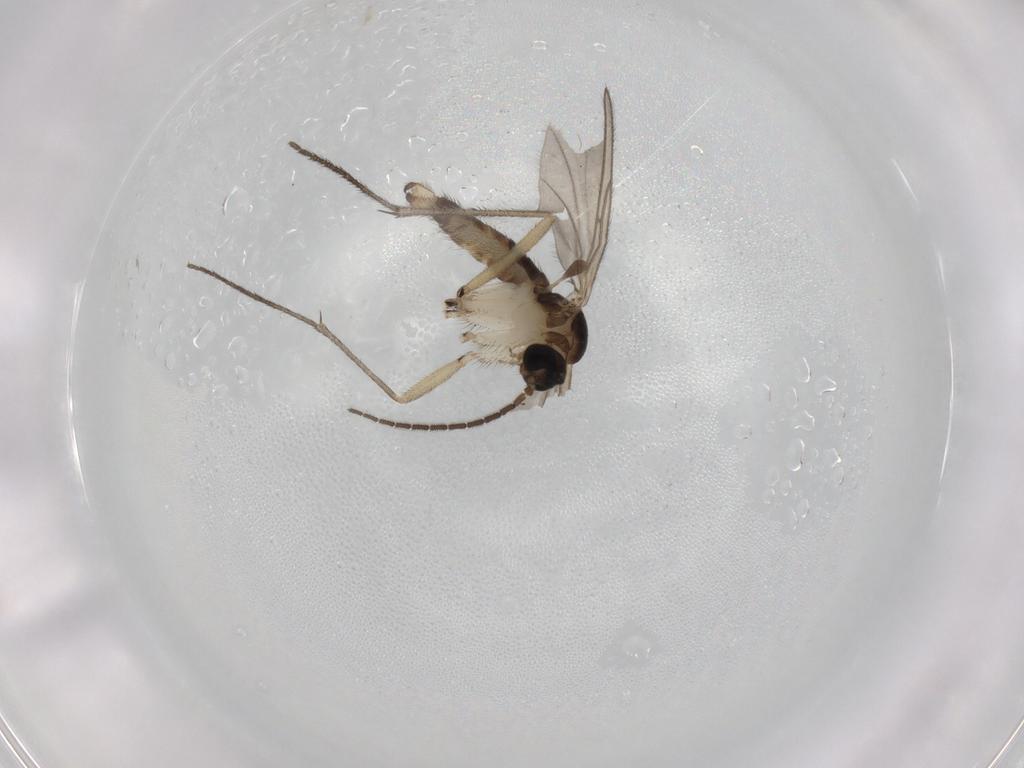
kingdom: Animalia
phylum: Arthropoda
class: Insecta
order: Diptera
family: Sciaridae
